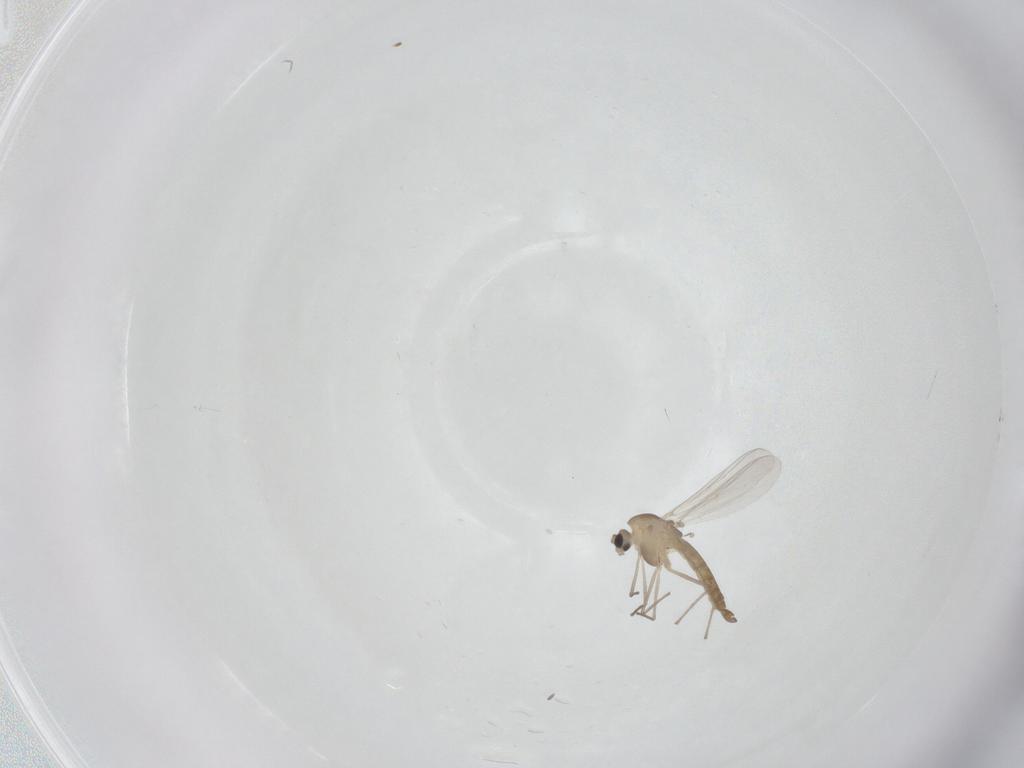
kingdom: Animalia
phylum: Arthropoda
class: Insecta
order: Diptera
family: Chironomidae
